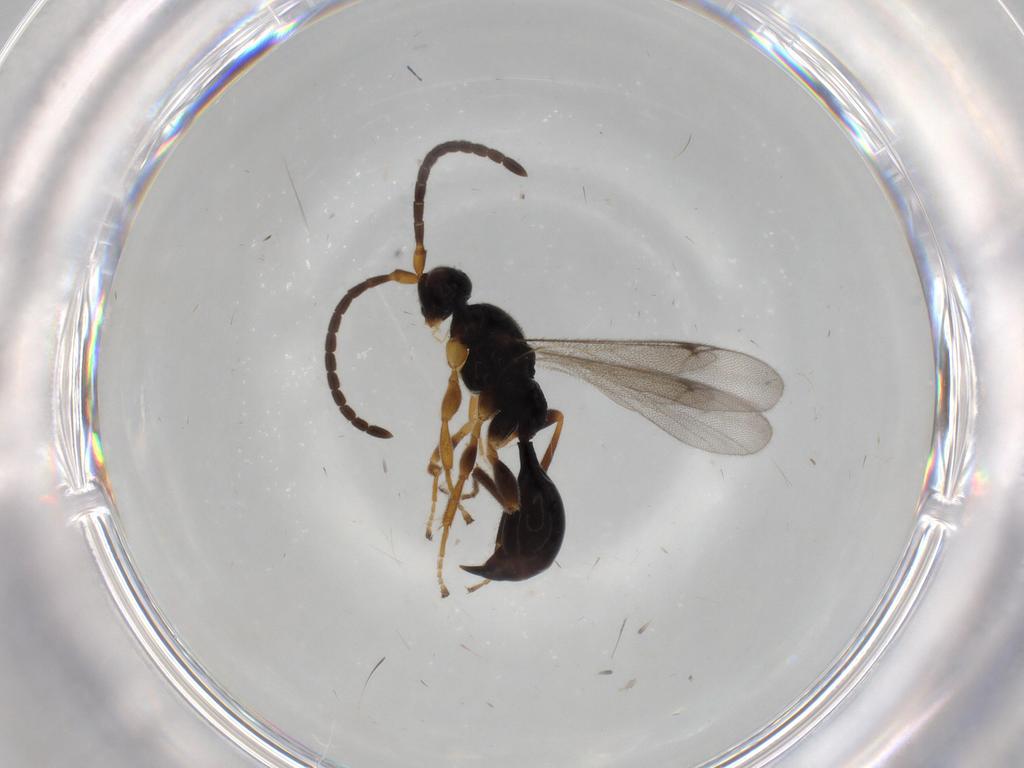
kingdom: Animalia
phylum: Arthropoda
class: Insecta
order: Hymenoptera
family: Proctotrupidae
